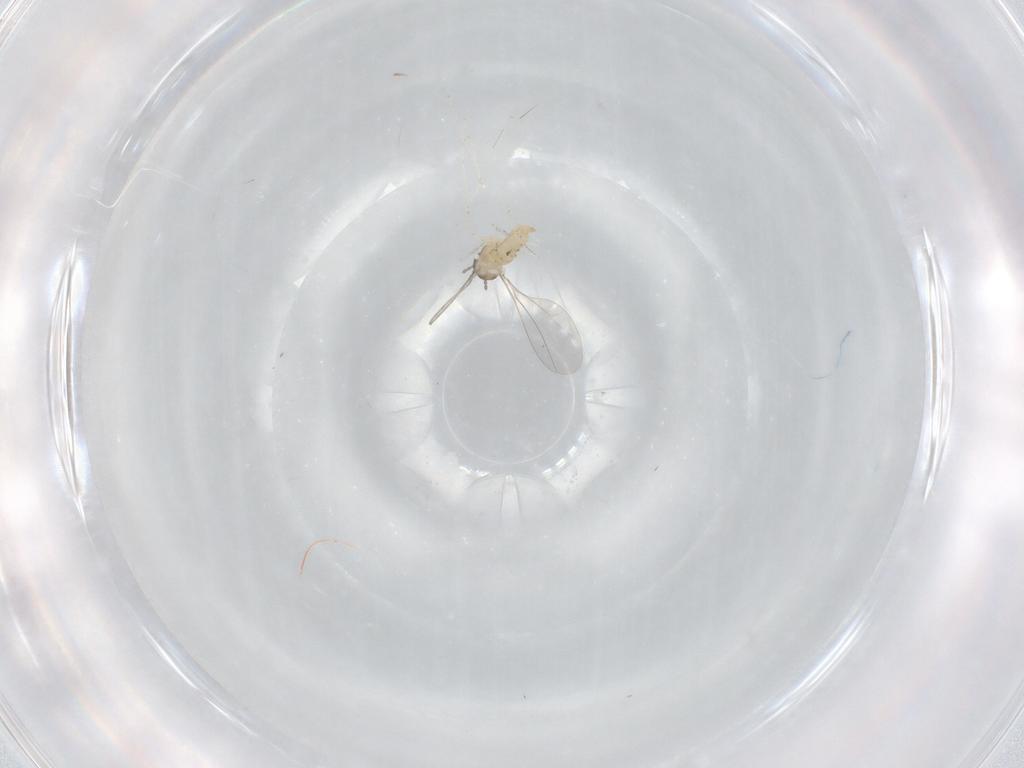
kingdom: Animalia
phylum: Arthropoda
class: Insecta
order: Diptera
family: Cecidomyiidae
